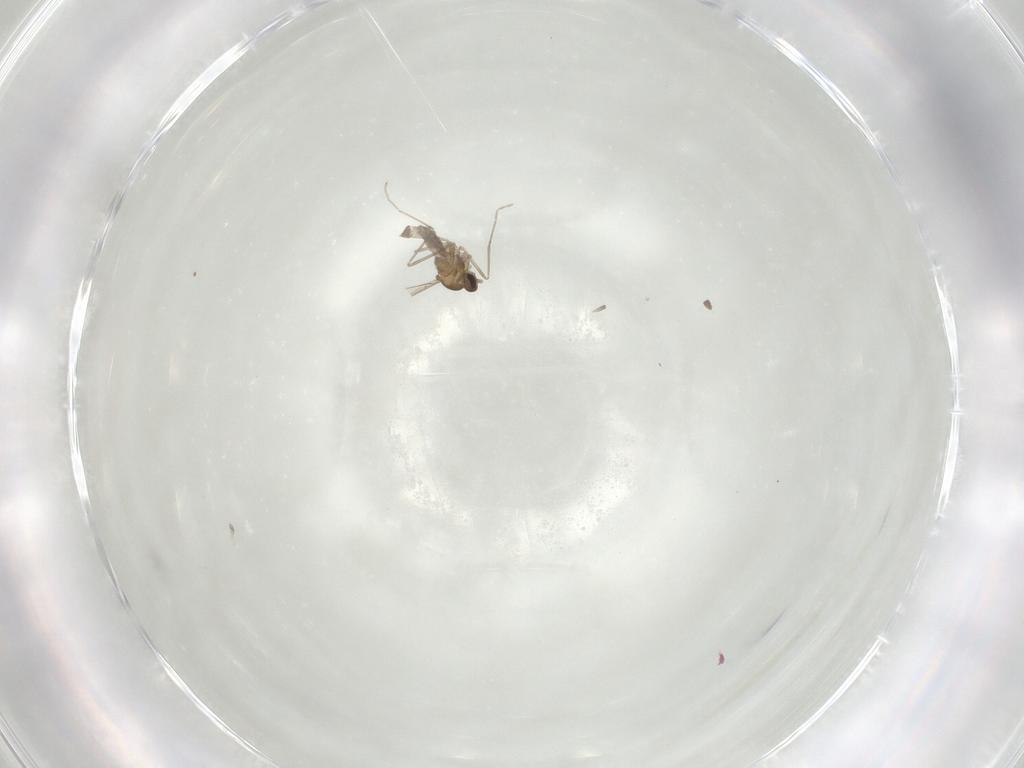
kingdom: Animalia
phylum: Arthropoda
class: Insecta
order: Diptera
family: Cecidomyiidae
